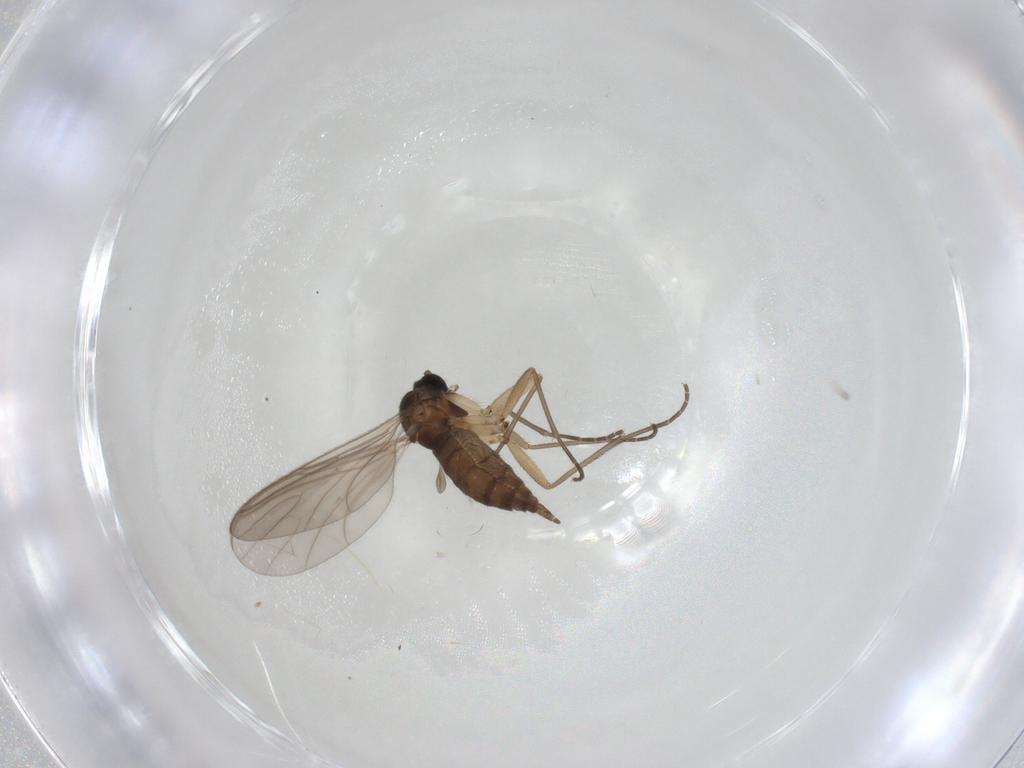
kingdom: Animalia
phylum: Arthropoda
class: Insecta
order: Diptera
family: Sciaridae
